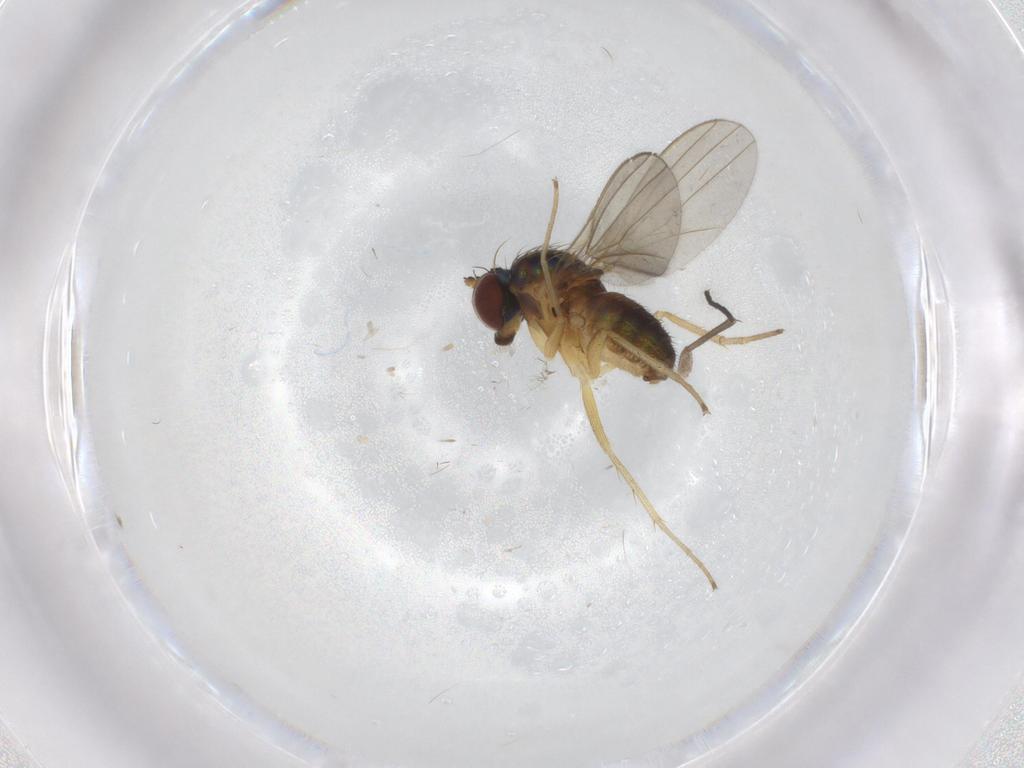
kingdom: Animalia
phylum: Arthropoda
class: Insecta
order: Diptera
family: Dolichopodidae
